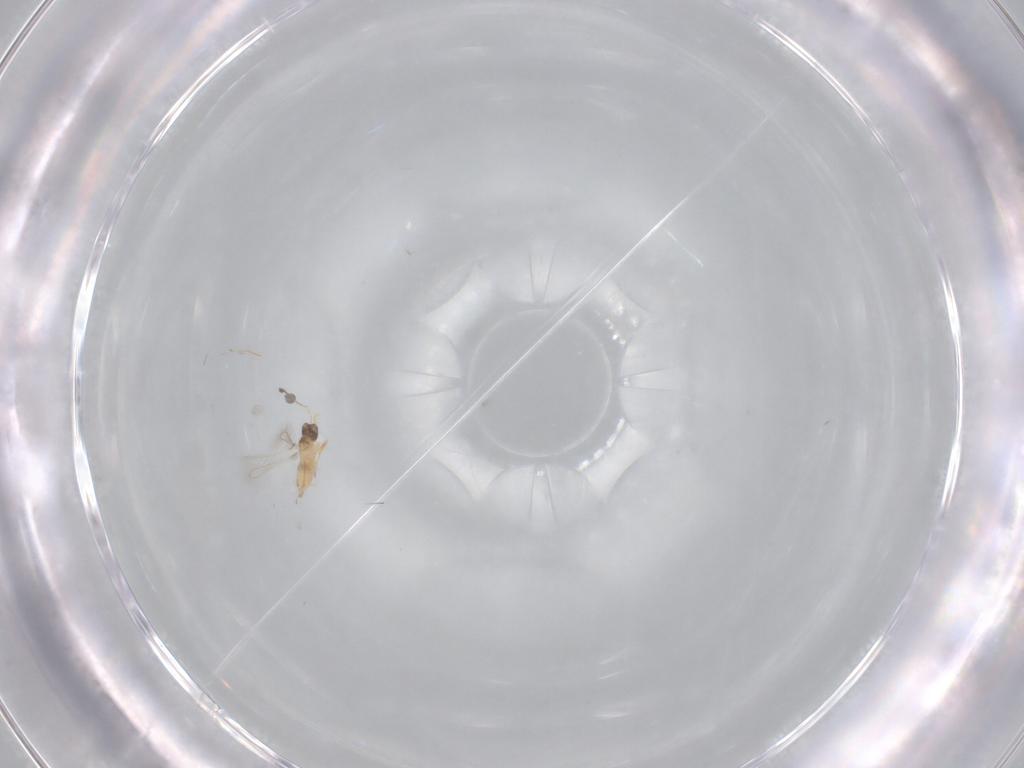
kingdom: Animalia
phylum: Arthropoda
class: Insecta
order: Hymenoptera
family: Mymaridae
